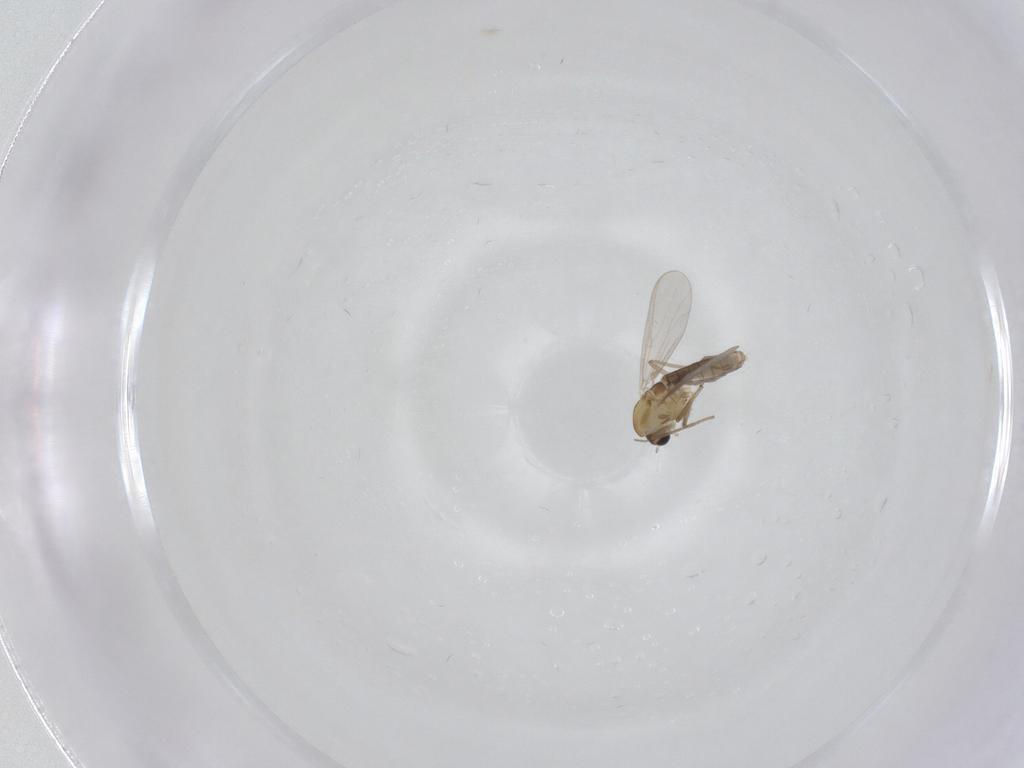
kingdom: Animalia
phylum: Arthropoda
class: Insecta
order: Diptera
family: Chironomidae
